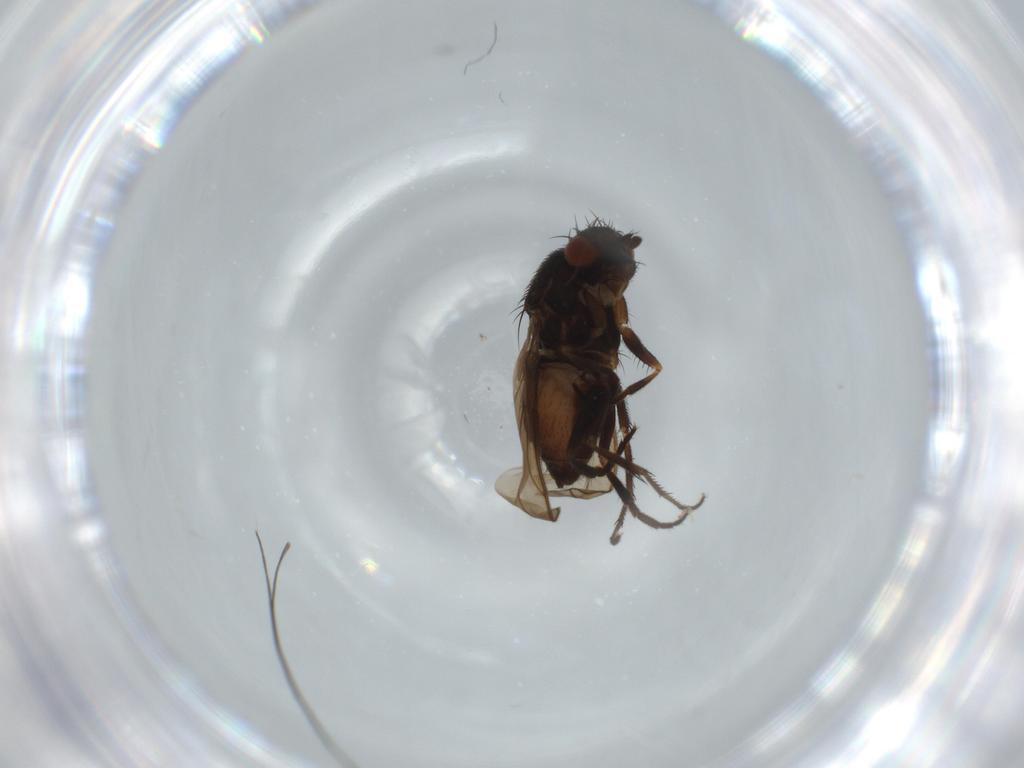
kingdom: Animalia
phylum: Arthropoda
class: Insecta
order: Diptera
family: Sphaeroceridae
